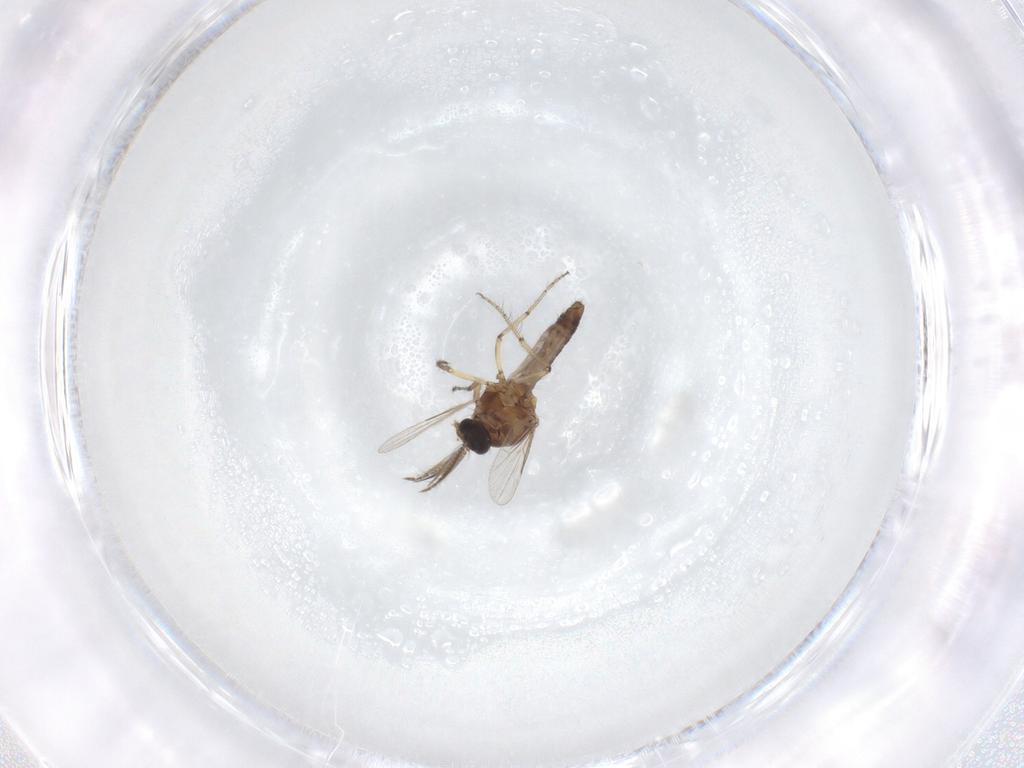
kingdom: Animalia
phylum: Arthropoda
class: Insecta
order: Diptera
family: Ceratopogonidae
